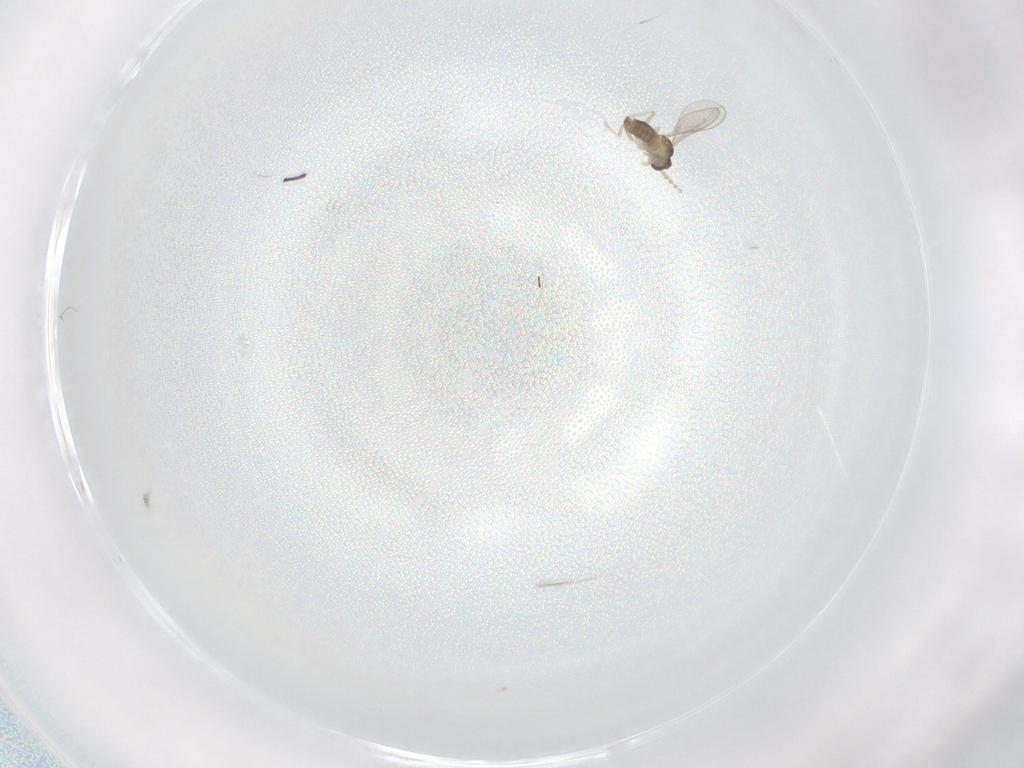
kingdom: Animalia
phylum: Arthropoda
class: Insecta
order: Diptera
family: Cecidomyiidae
